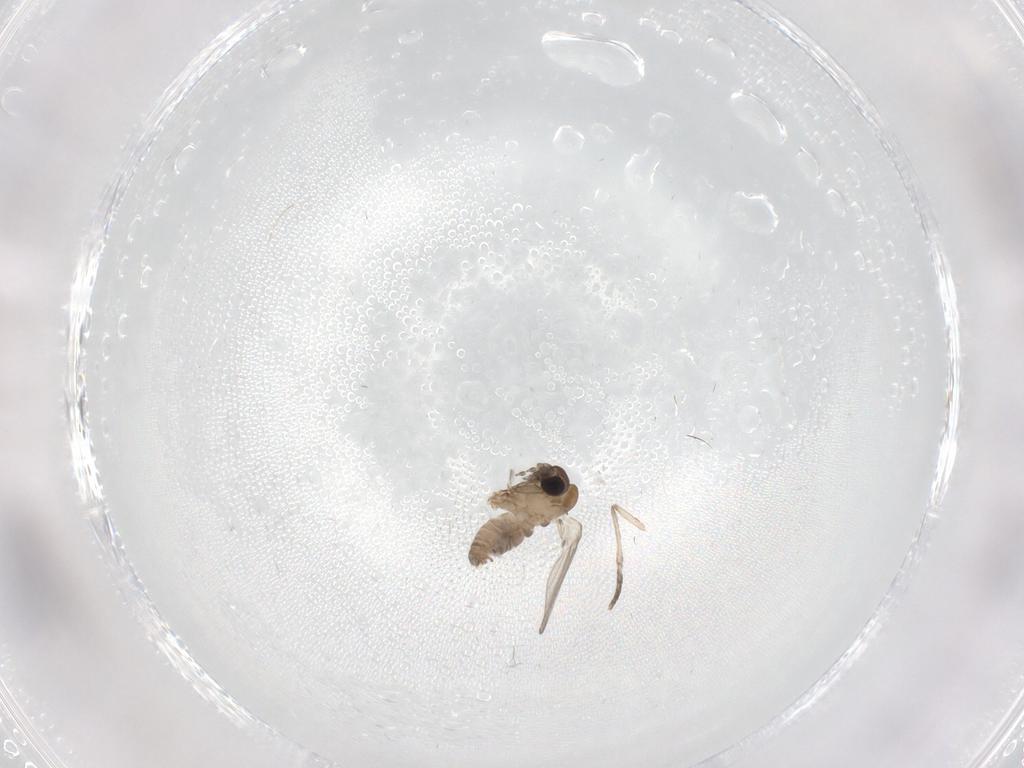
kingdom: Animalia
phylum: Arthropoda
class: Insecta
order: Diptera
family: Cecidomyiidae
